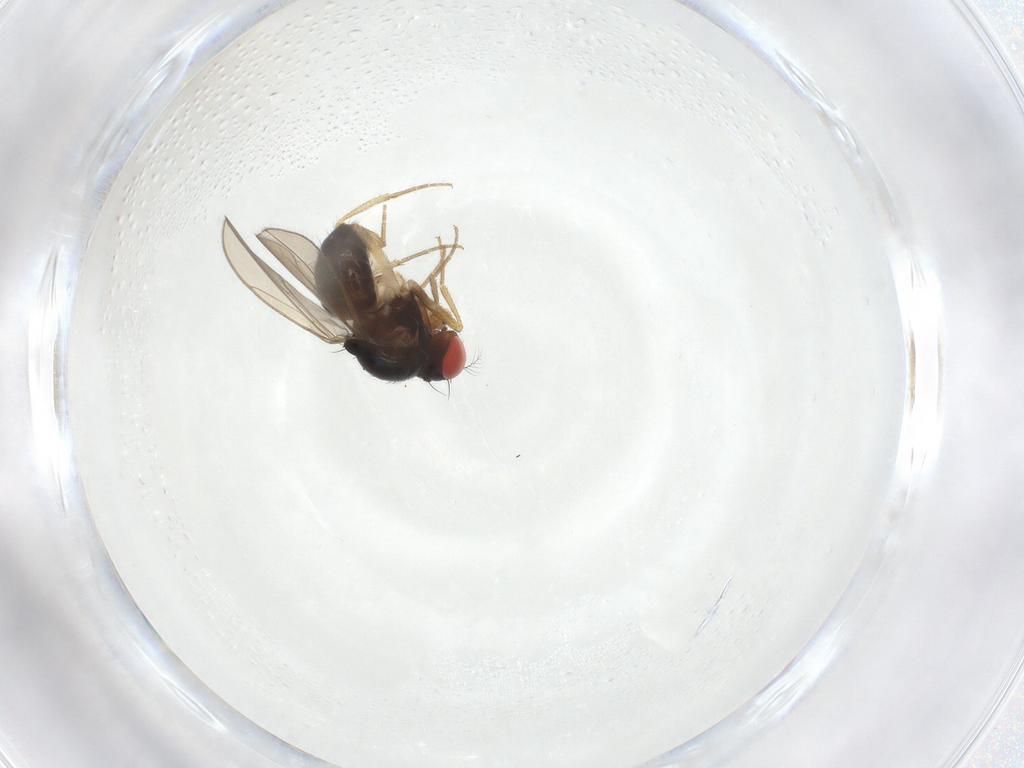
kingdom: Animalia
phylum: Arthropoda
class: Insecta
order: Diptera
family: Drosophilidae
